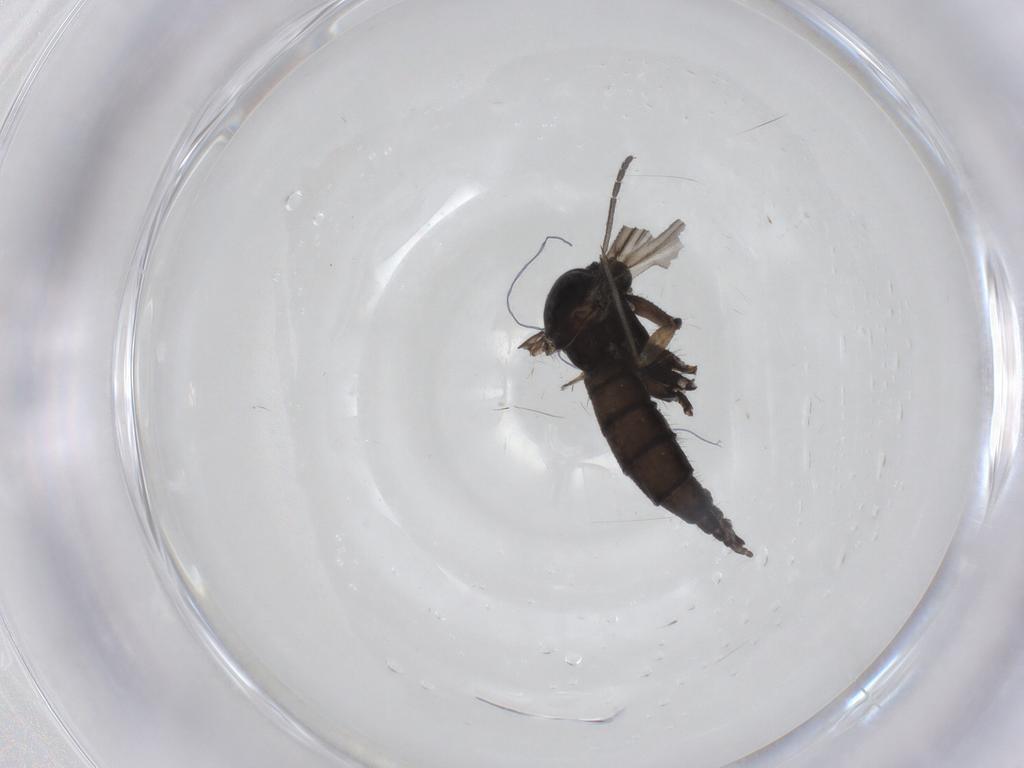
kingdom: Animalia
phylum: Arthropoda
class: Insecta
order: Diptera
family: Sciaridae
